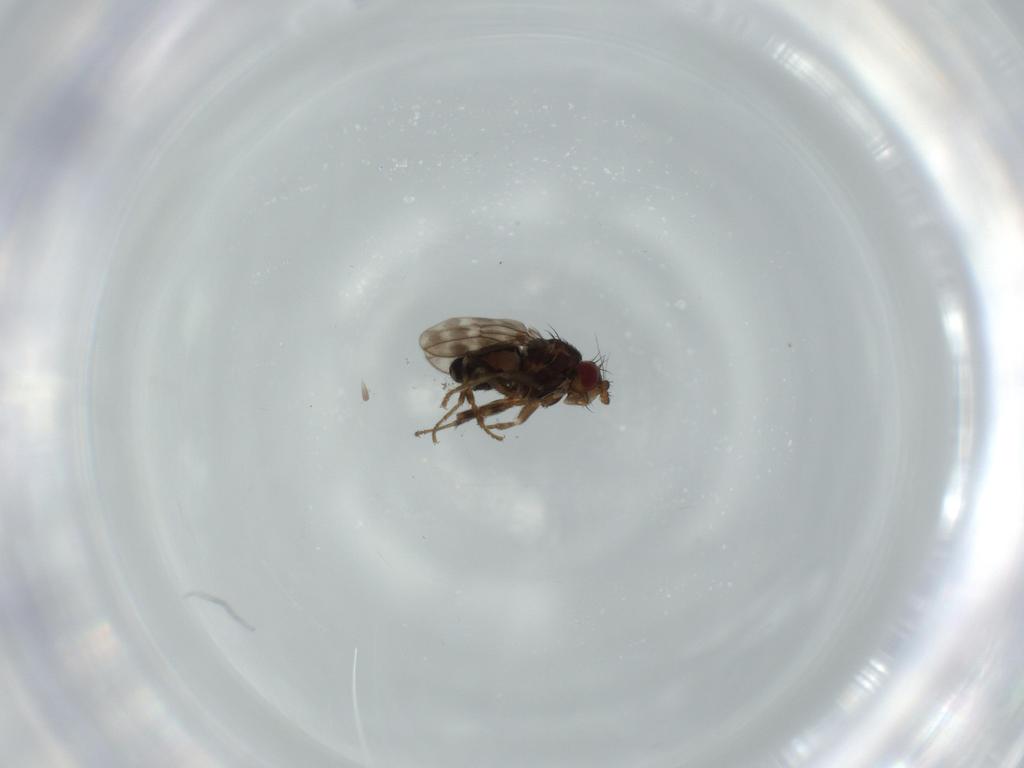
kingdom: Animalia
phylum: Arthropoda
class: Insecta
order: Diptera
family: Sphaeroceridae
